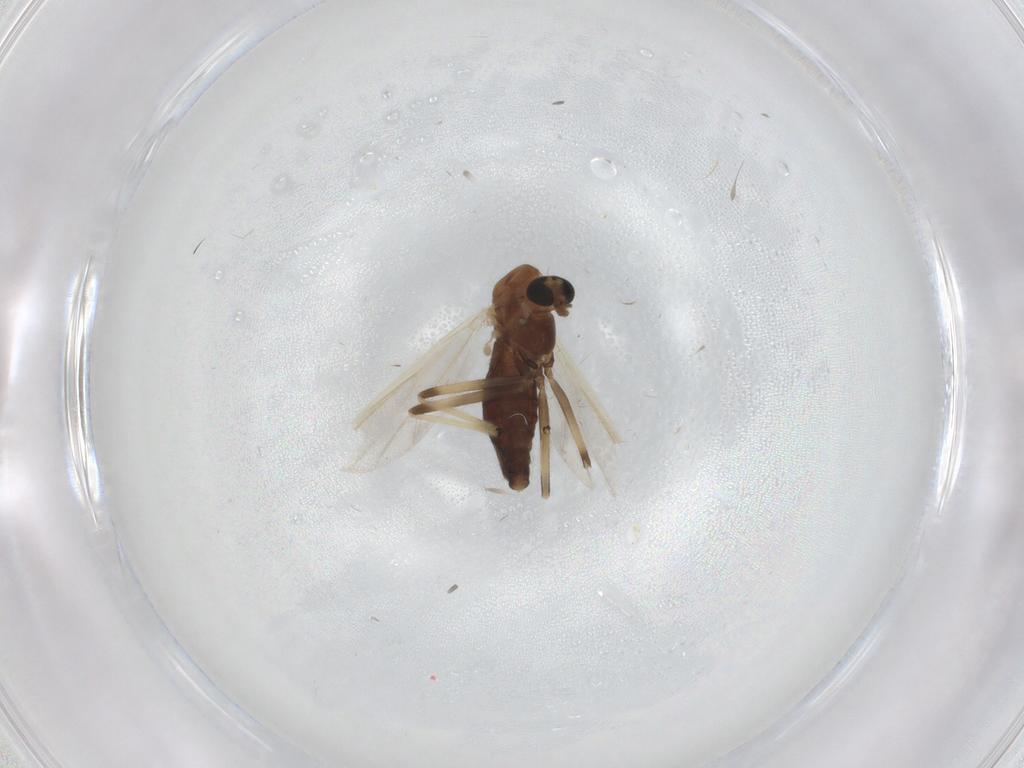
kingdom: Animalia
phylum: Arthropoda
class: Insecta
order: Diptera
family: Chironomidae
